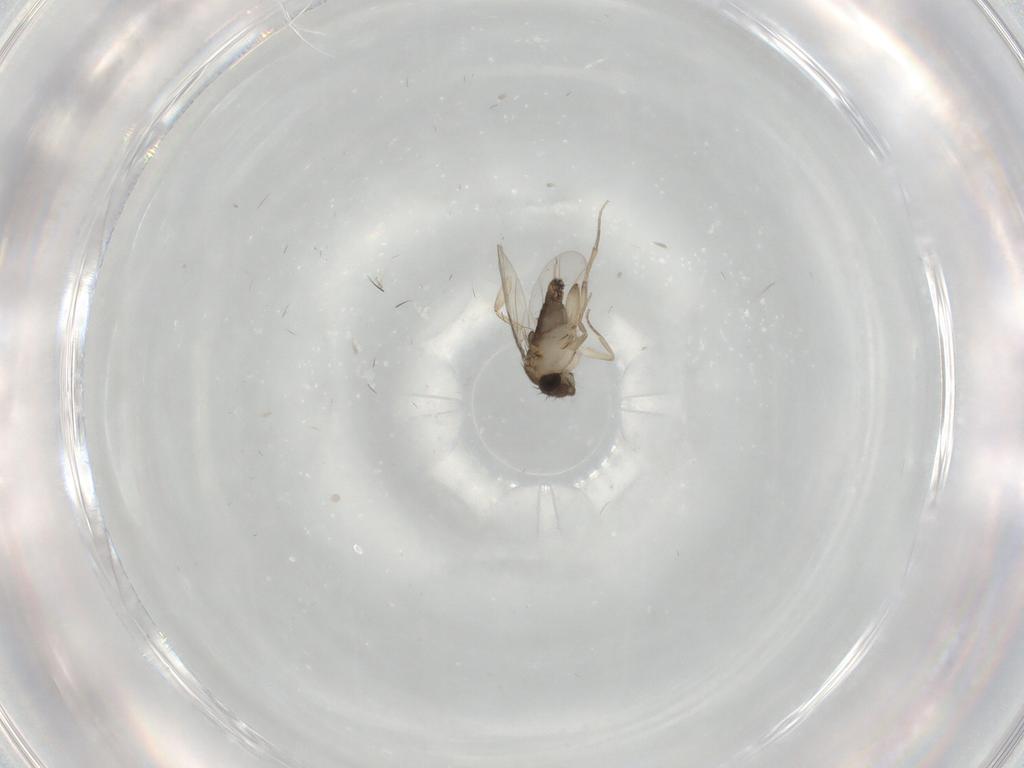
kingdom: Animalia
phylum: Arthropoda
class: Insecta
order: Diptera
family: Phoridae
